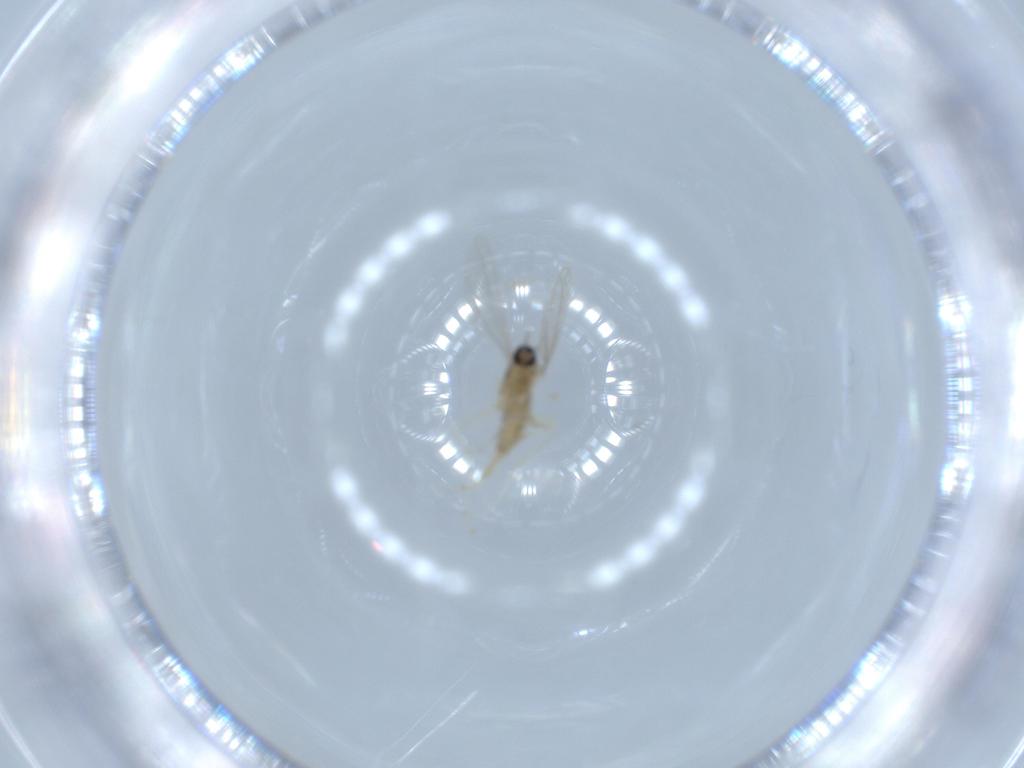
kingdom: Animalia
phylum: Arthropoda
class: Insecta
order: Diptera
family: Cecidomyiidae
